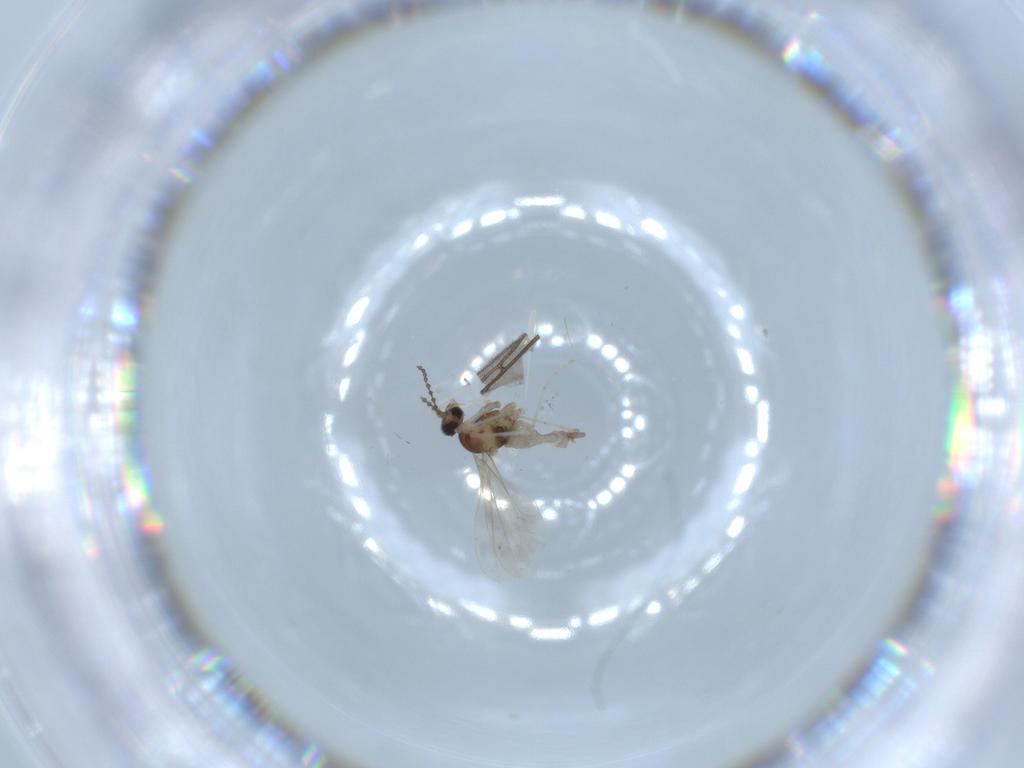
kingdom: Animalia
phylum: Arthropoda
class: Insecta
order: Diptera
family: Cecidomyiidae
